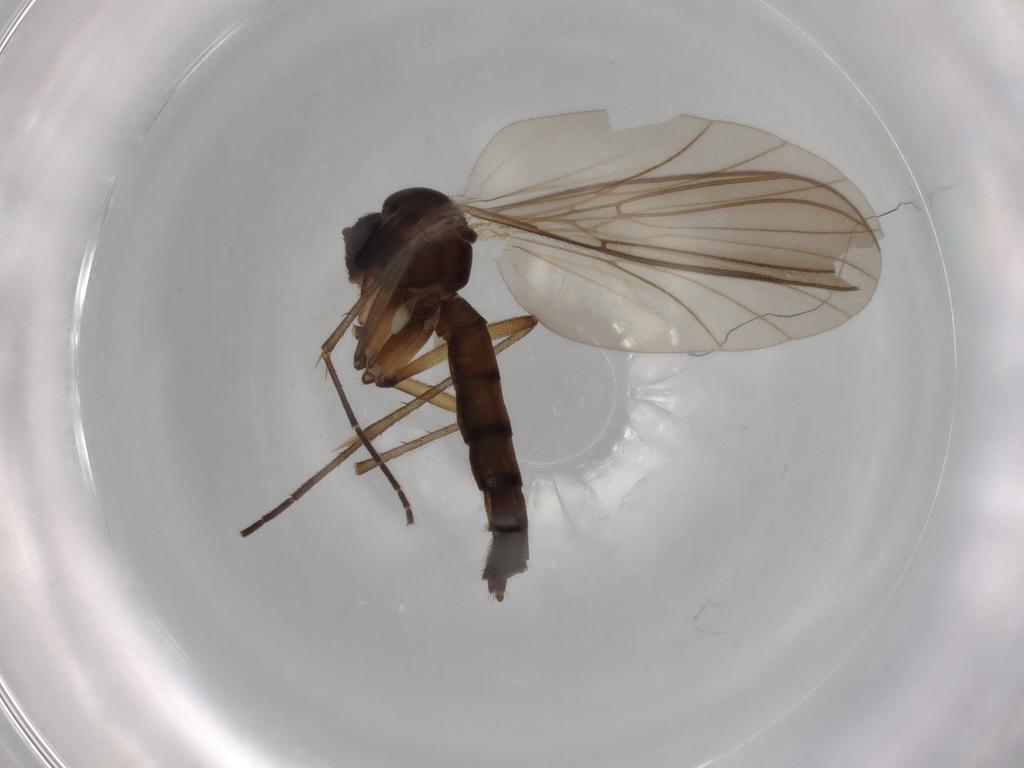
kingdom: Animalia
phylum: Arthropoda
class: Insecta
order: Diptera
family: Mycetophilidae
